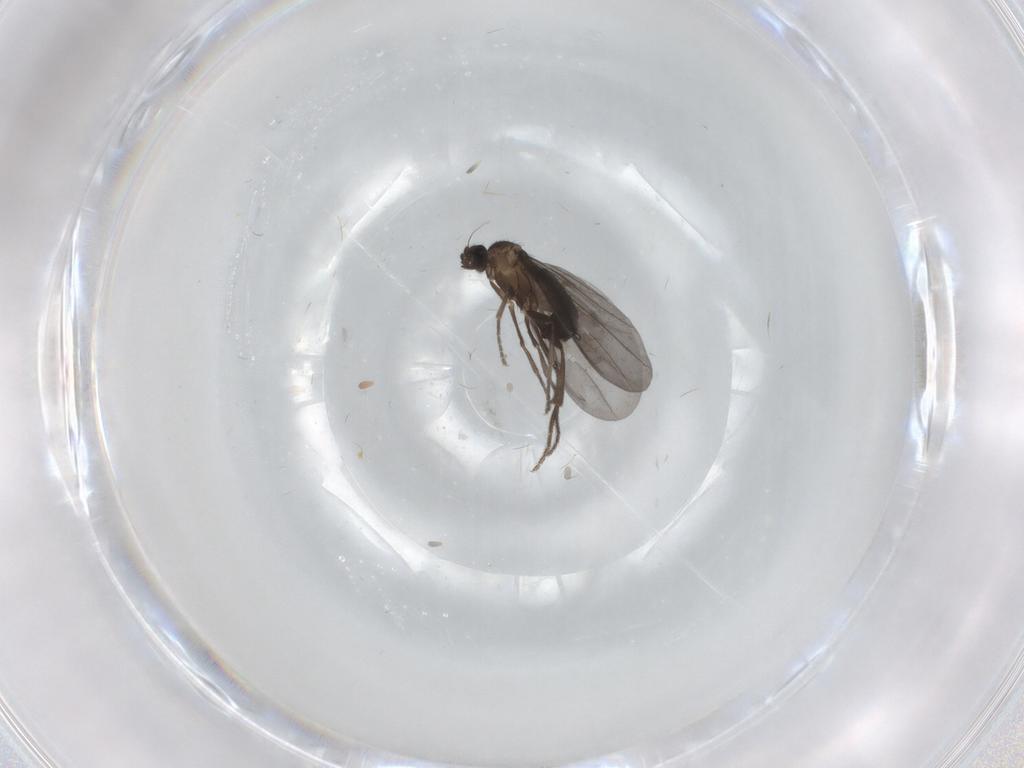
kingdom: Animalia
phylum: Arthropoda
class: Insecta
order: Diptera
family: Phoridae
